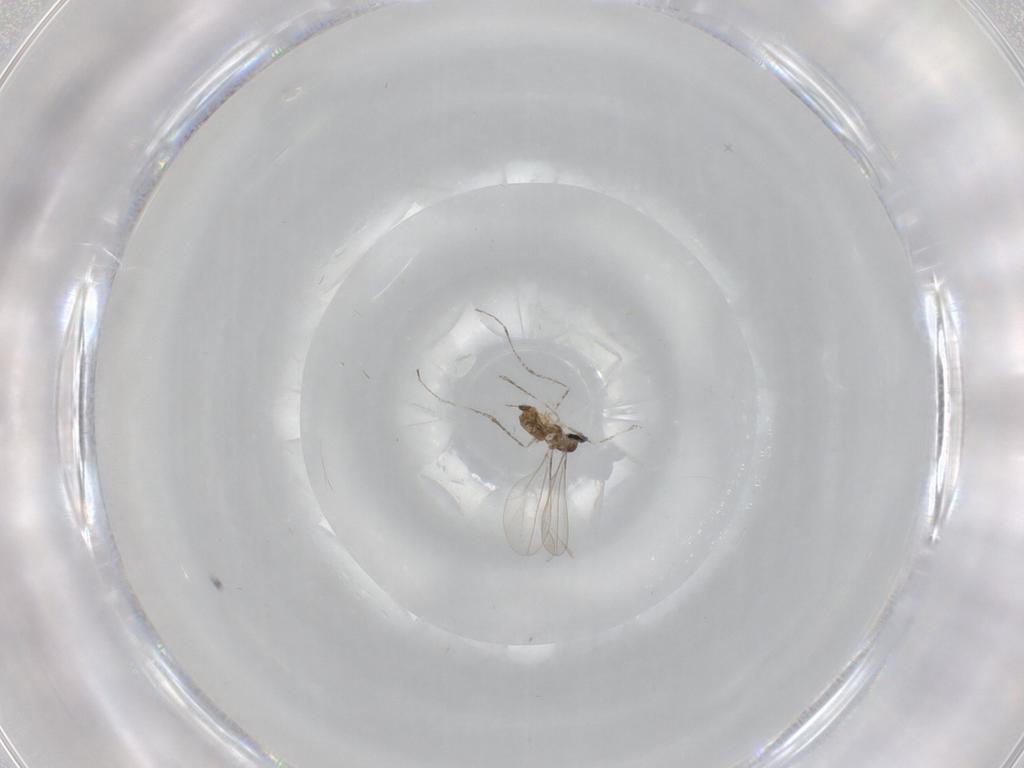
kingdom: Animalia
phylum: Arthropoda
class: Insecta
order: Diptera
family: Cecidomyiidae
